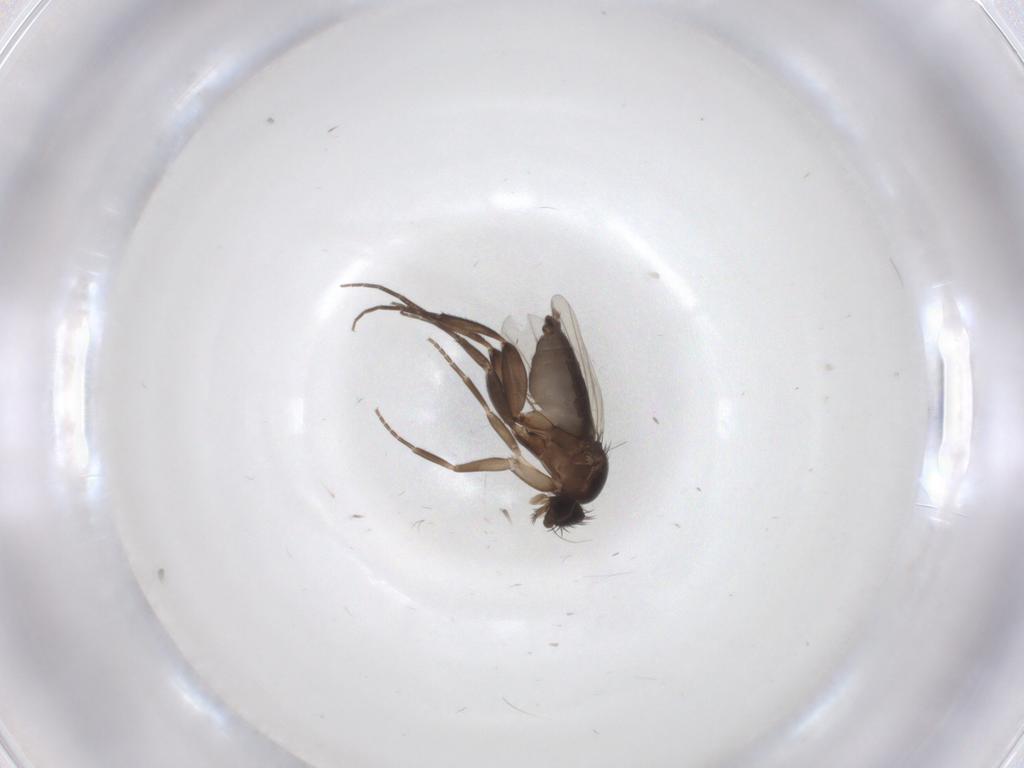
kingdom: Animalia
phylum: Arthropoda
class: Insecta
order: Diptera
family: Phoridae
